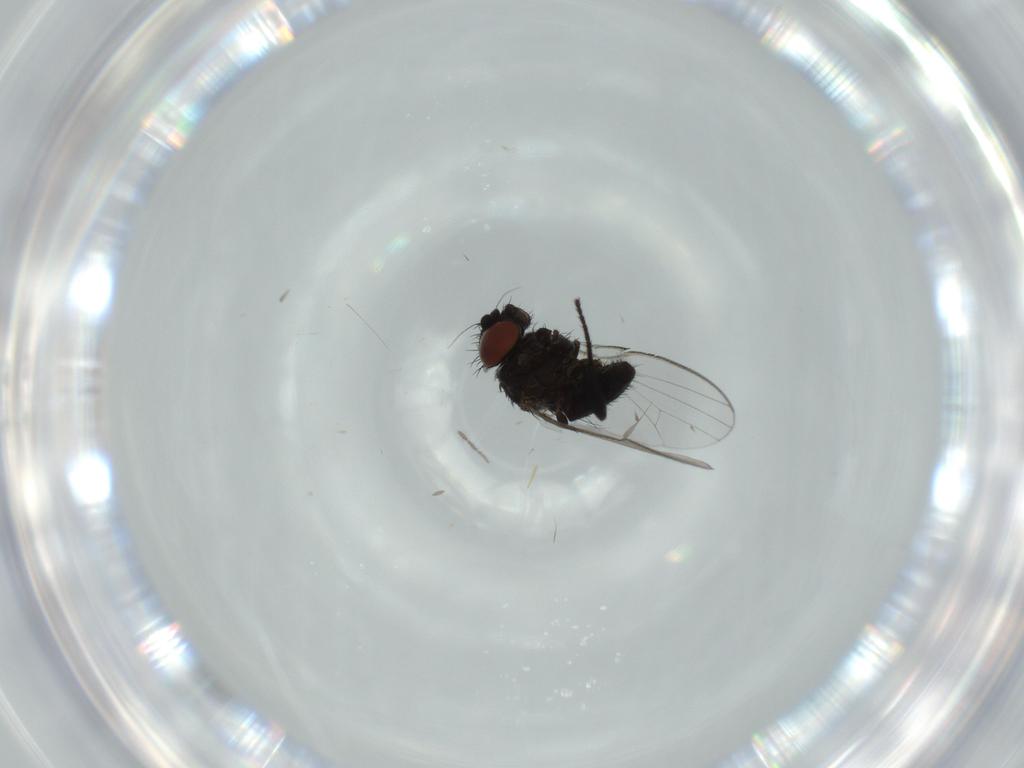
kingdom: Animalia
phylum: Arthropoda
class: Insecta
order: Diptera
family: Milichiidae
